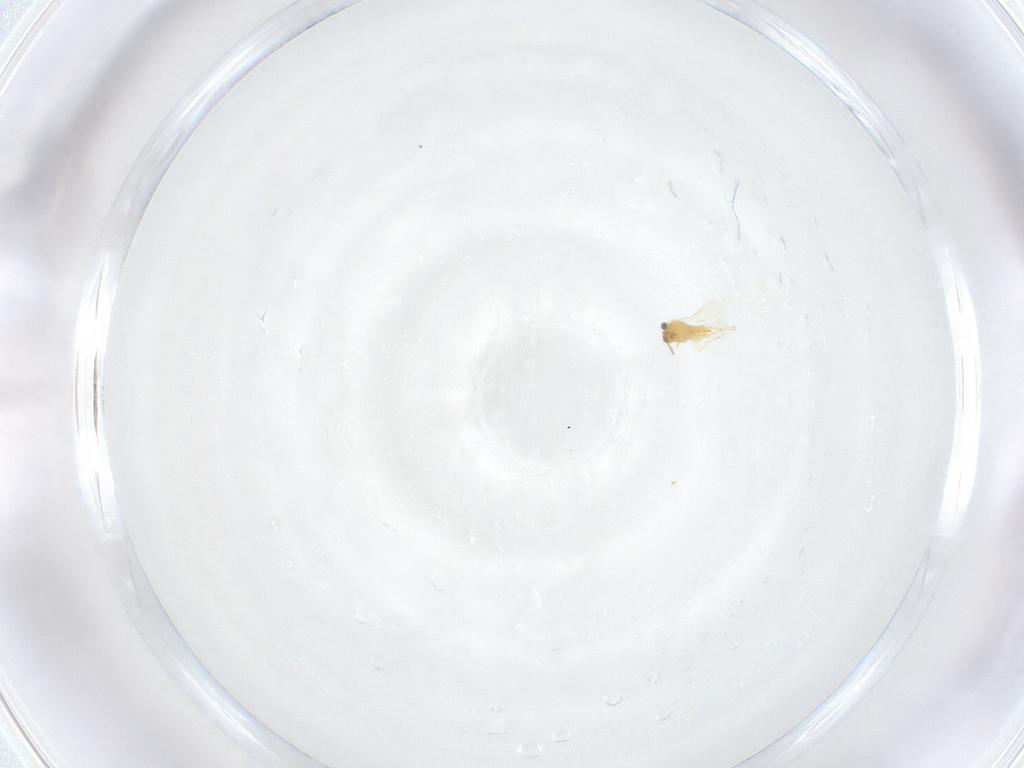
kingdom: Animalia
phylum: Arthropoda
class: Insecta
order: Hymenoptera
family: Aphelinidae
